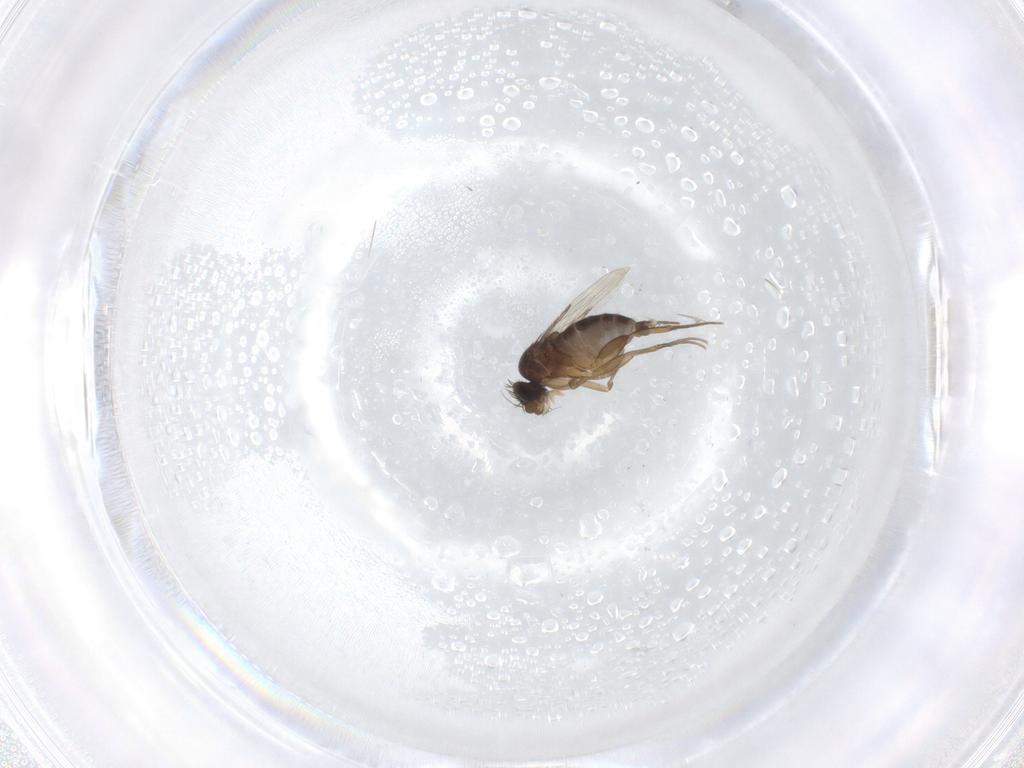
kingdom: Animalia
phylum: Arthropoda
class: Insecta
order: Diptera
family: Phoridae
